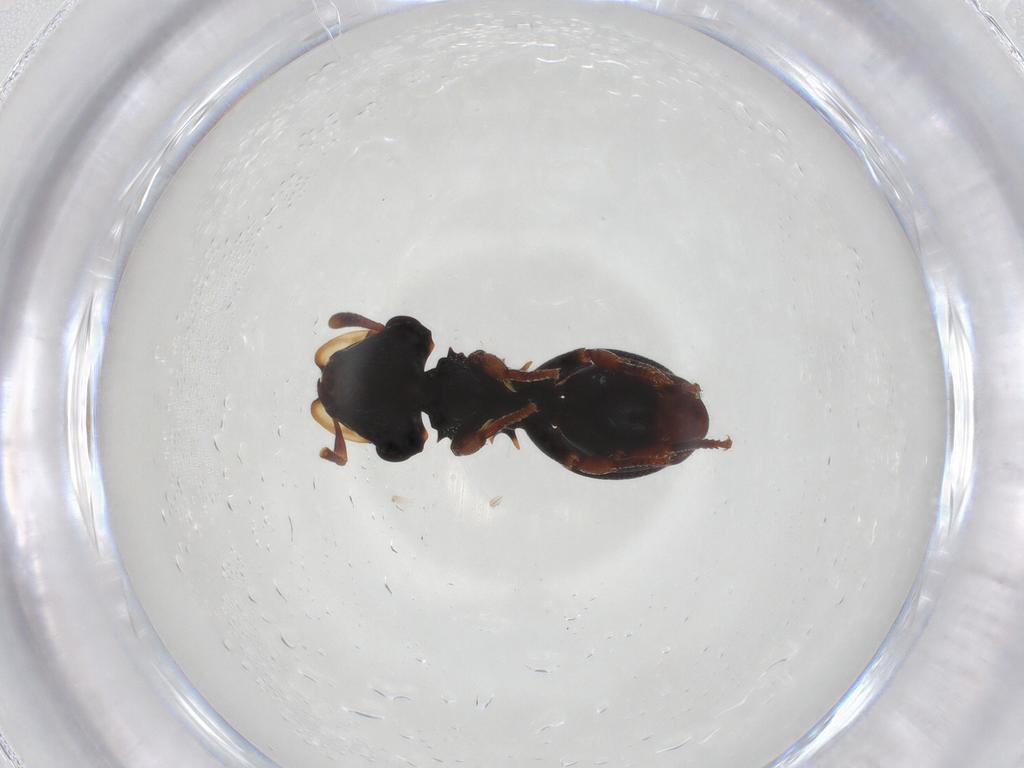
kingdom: Animalia
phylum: Arthropoda
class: Insecta
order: Hymenoptera
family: Formicidae
